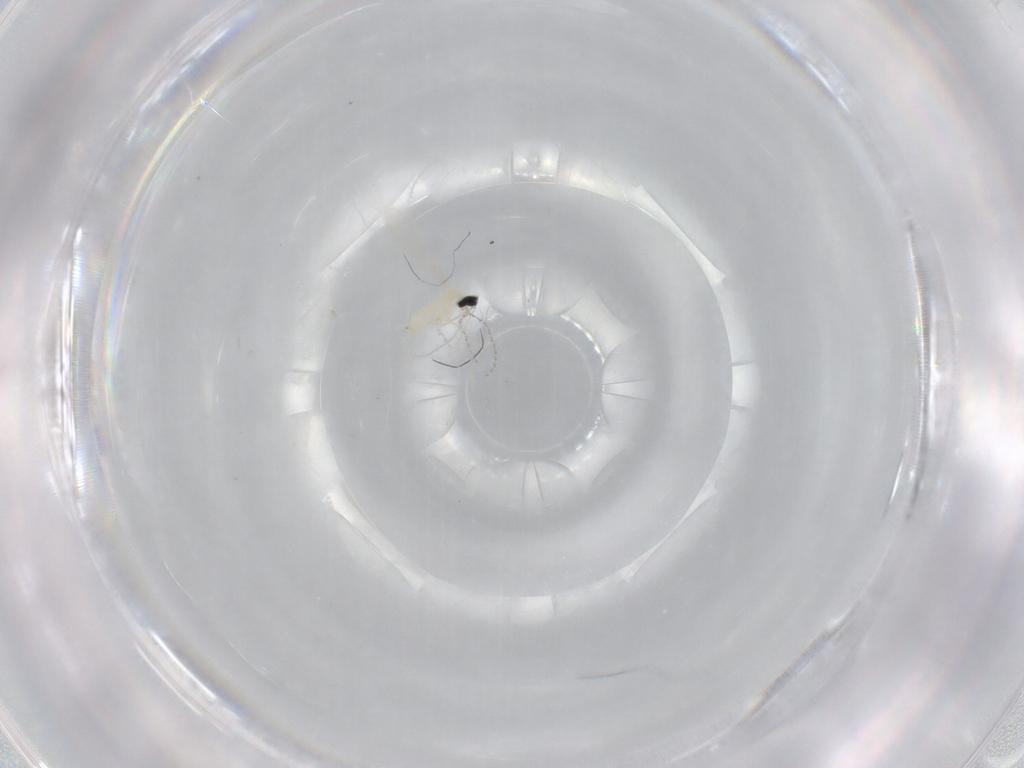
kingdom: Animalia
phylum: Arthropoda
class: Insecta
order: Diptera
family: Cecidomyiidae
